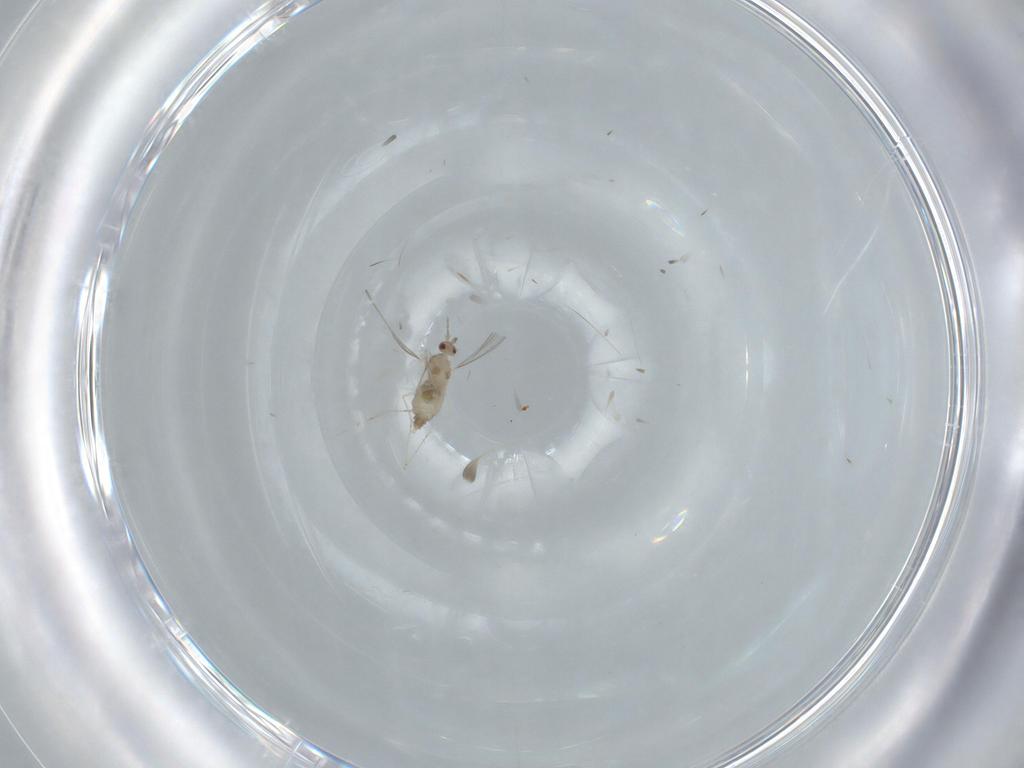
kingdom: Animalia
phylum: Arthropoda
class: Insecta
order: Diptera
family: Cecidomyiidae
